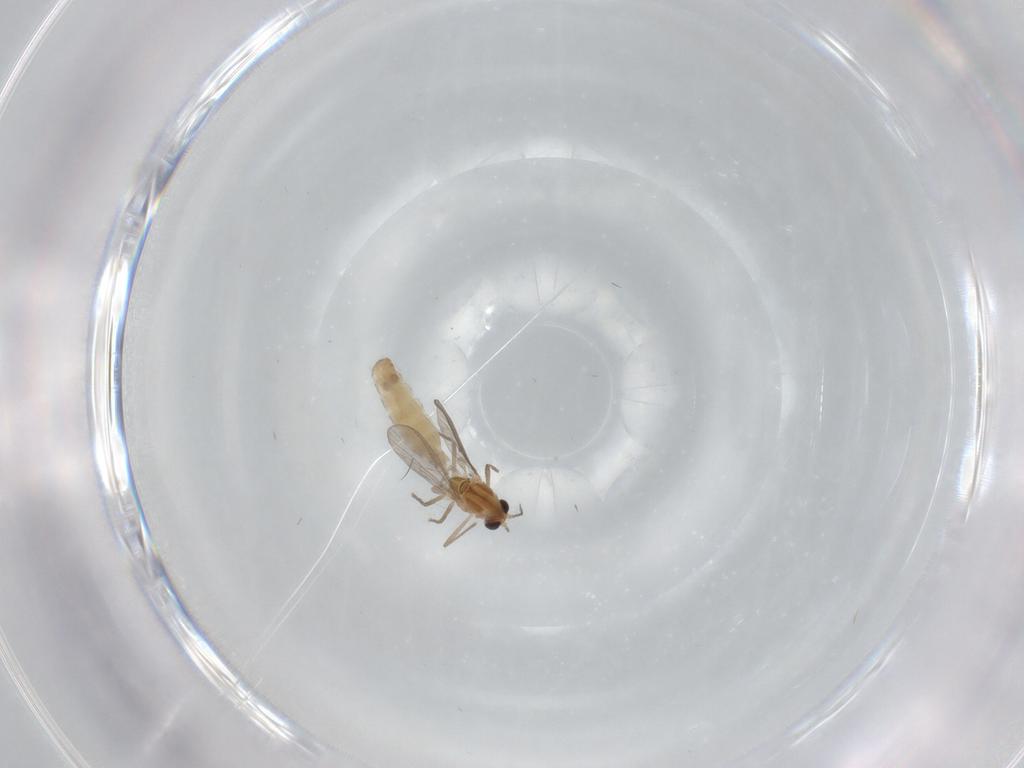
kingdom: Animalia
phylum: Arthropoda
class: Insecta
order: Diptera
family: Chironomidae
